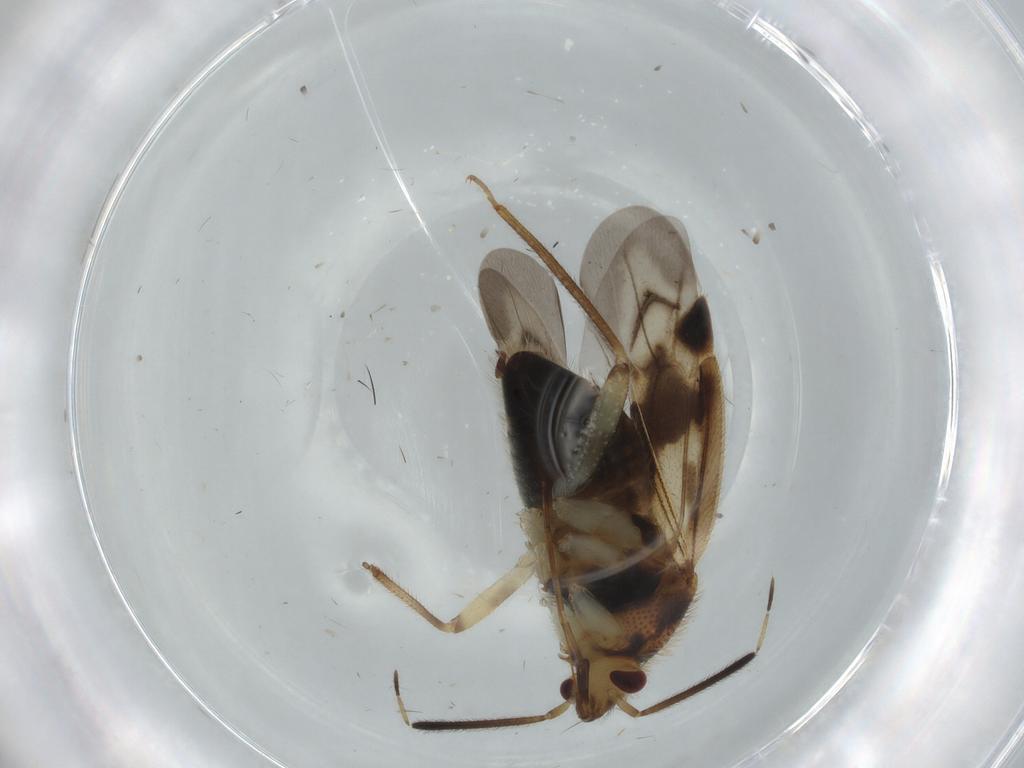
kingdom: Animalia
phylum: Arthropoda
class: Insecta
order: Hemiptera
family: Miridae
